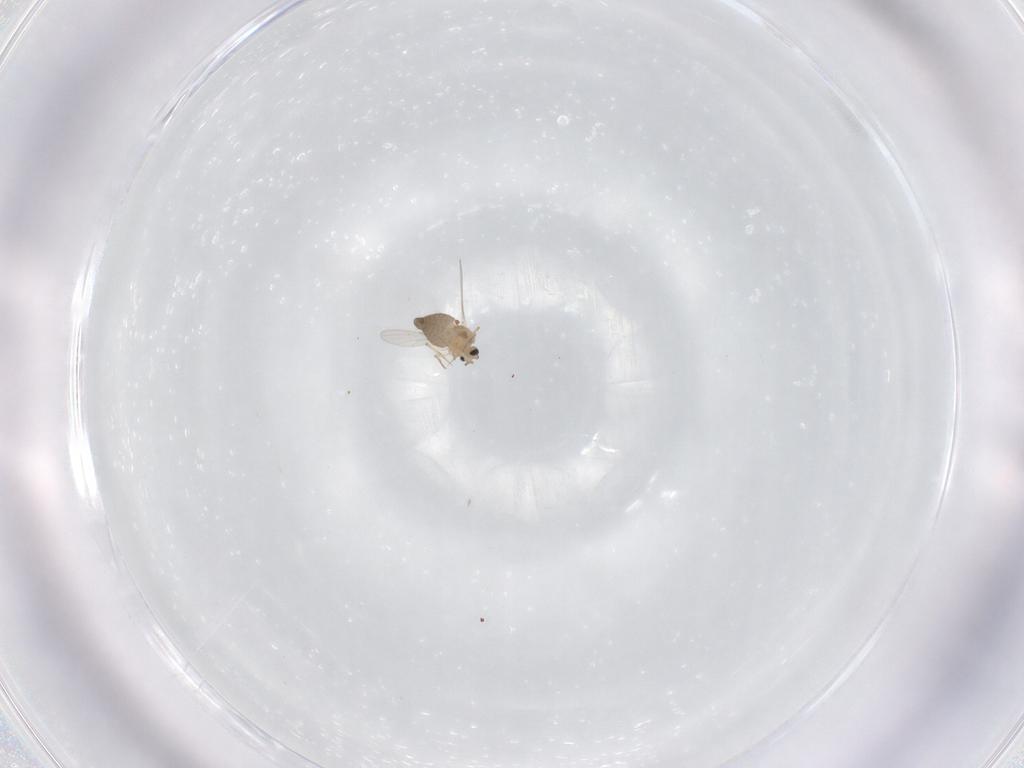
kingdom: Animalia
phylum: Arthropoda
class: Insecta
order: Diptera
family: Ceratopogonidae
